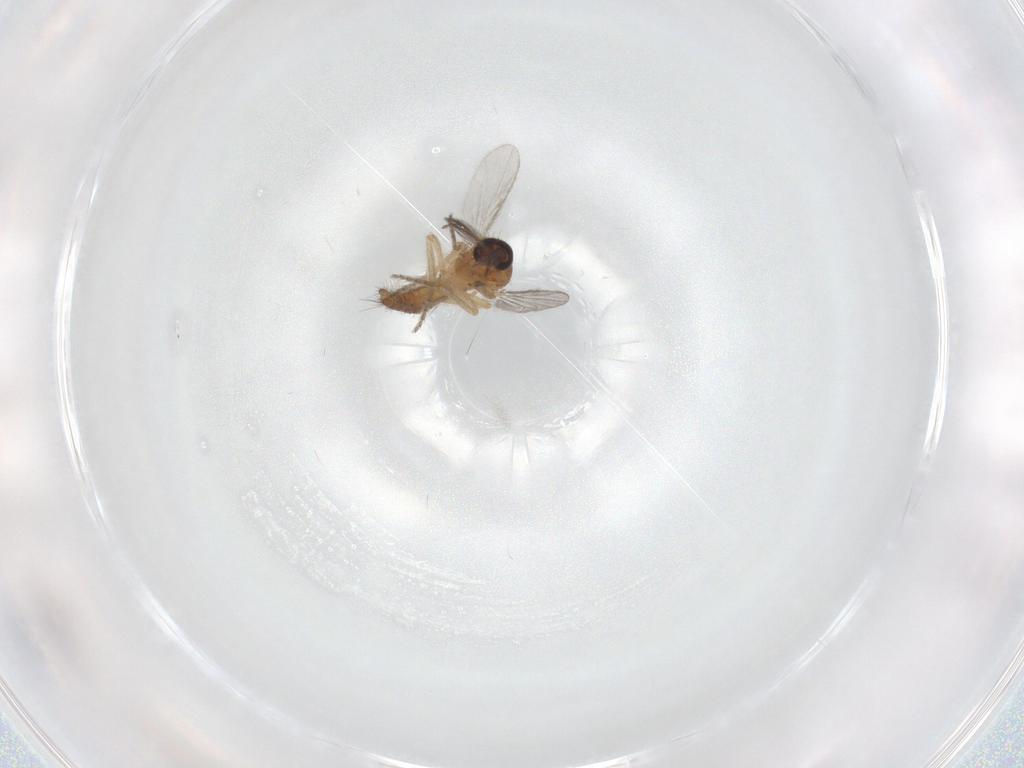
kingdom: Animalia
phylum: Arthropoda
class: Insecta
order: Diptera
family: Ceratopogonidae
